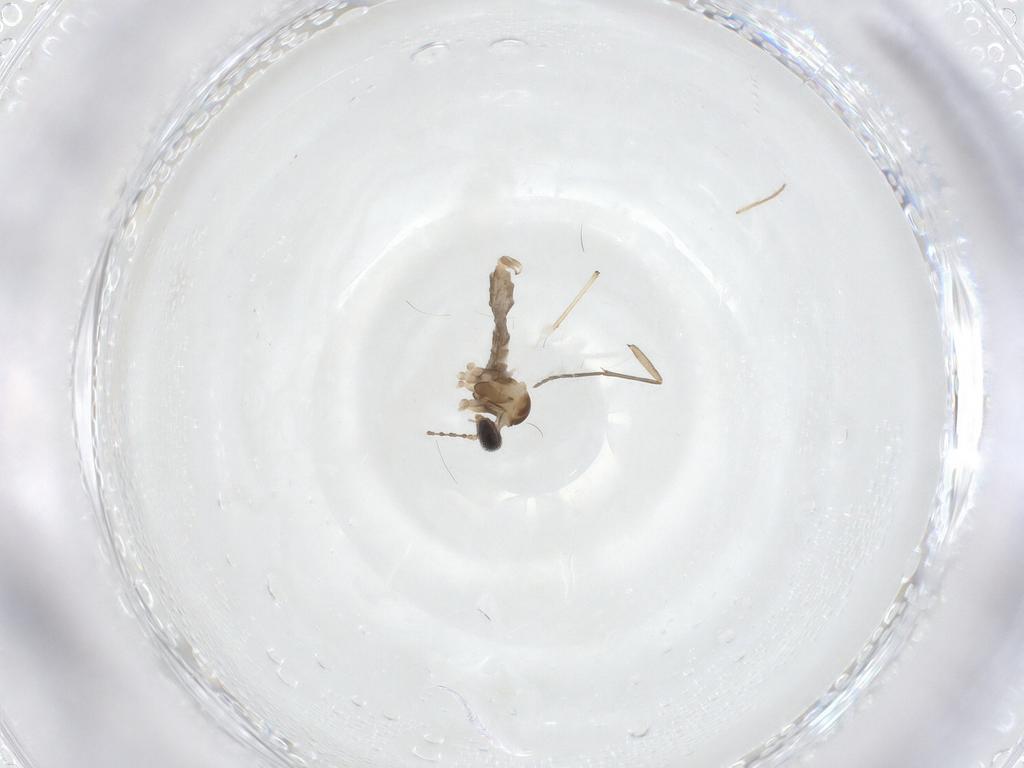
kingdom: Animalia
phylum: Arthropoda
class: Insecta
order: Diptera
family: Cecidomyiidae
